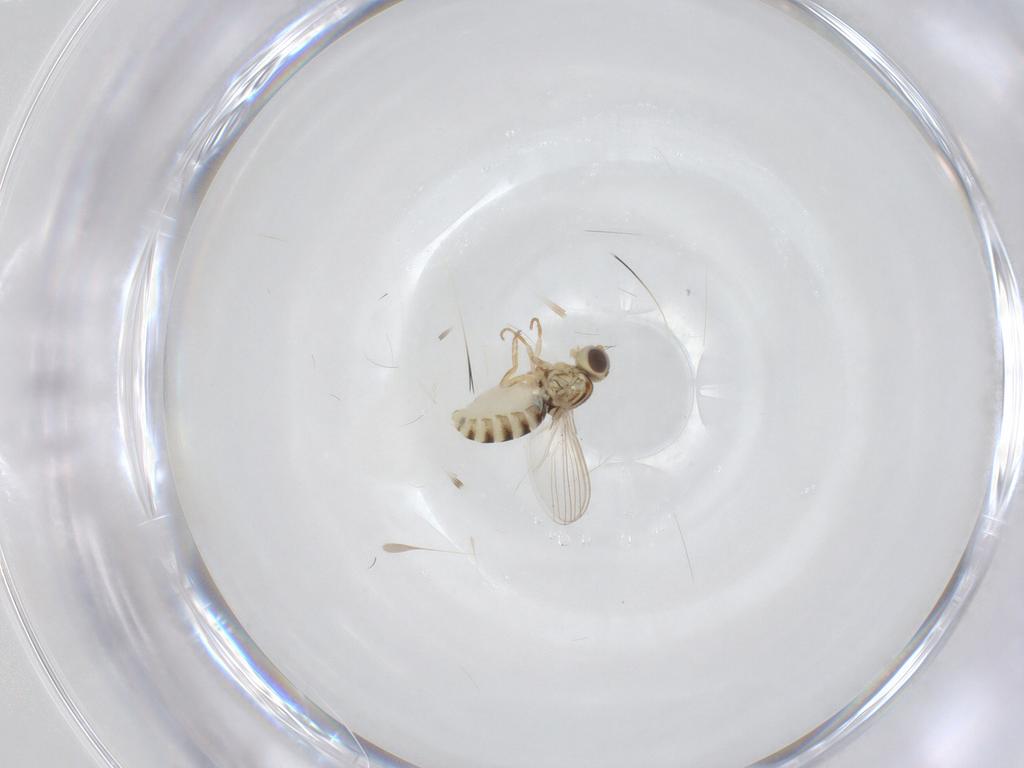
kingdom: Animalia
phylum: Arthropoda
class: Insecta
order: Diptera
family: Chyromyidae
